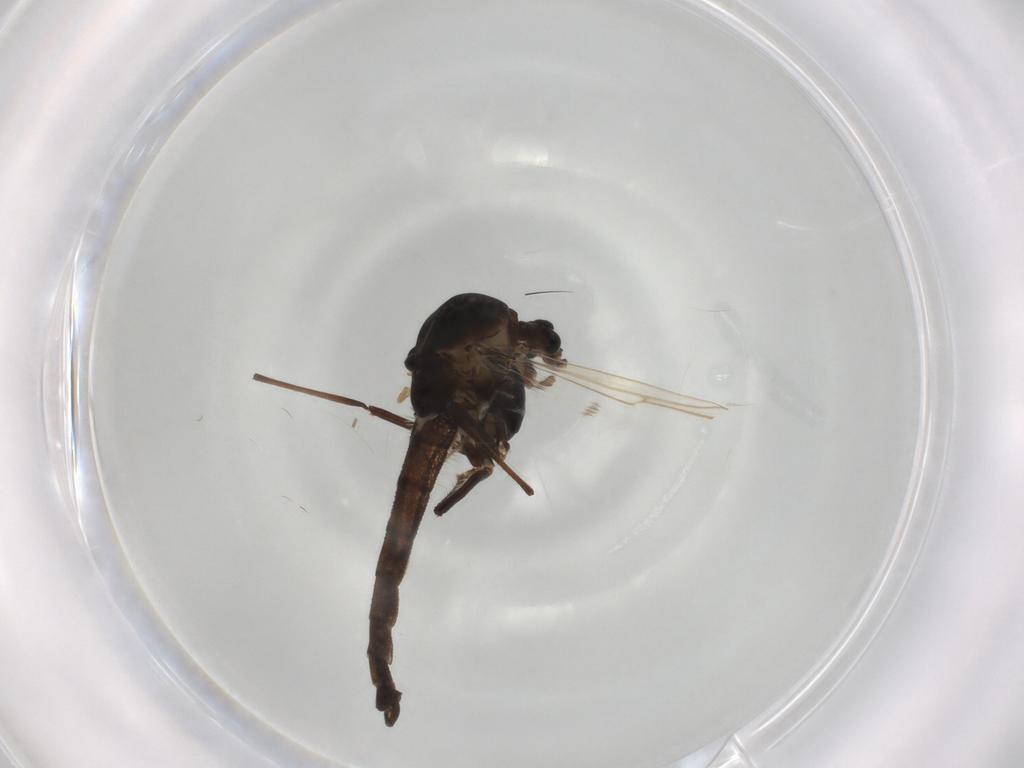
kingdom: Animalia
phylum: Arthropoda
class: Insecta
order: Diptera
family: Chironomidae
